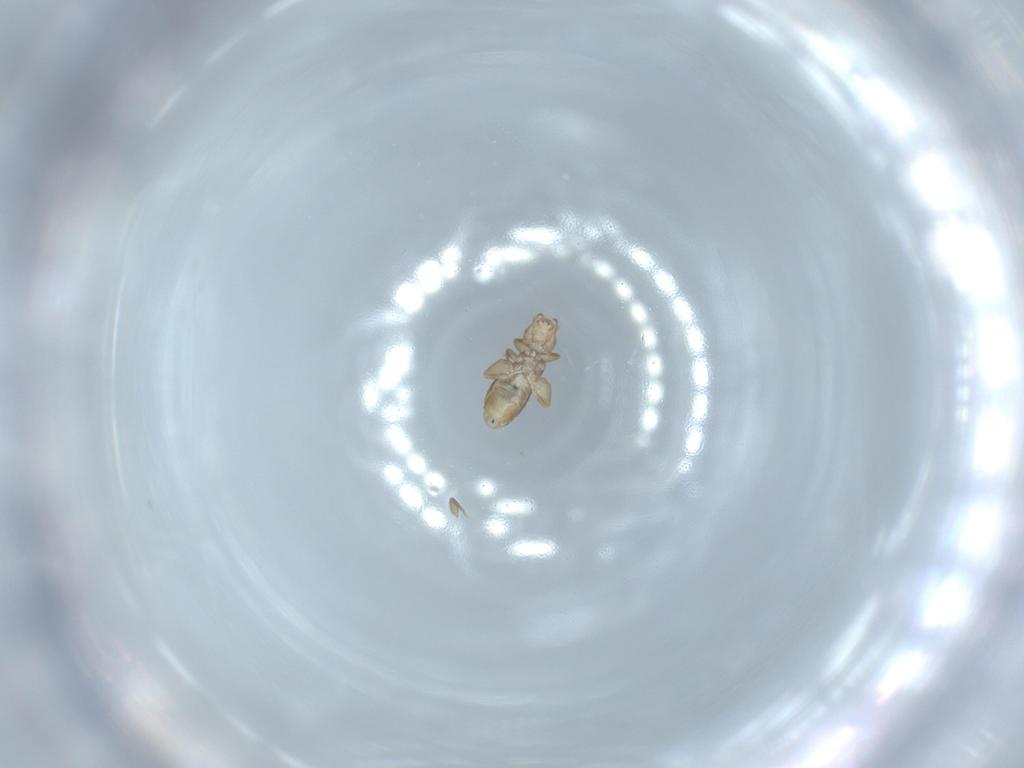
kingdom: Animalia
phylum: Arthropoda
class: Insecta
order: Psocodea
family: Liposcelididae
